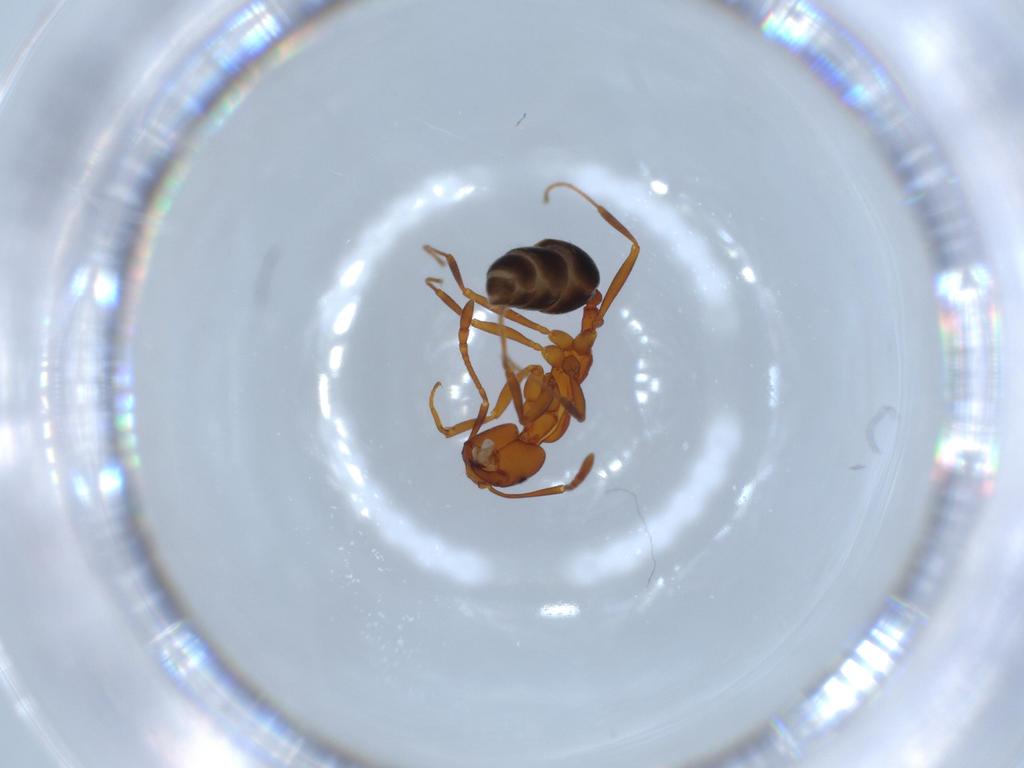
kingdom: Animalia
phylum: Arthropoda
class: Insecta
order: Hymenoptera
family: Formicidae
